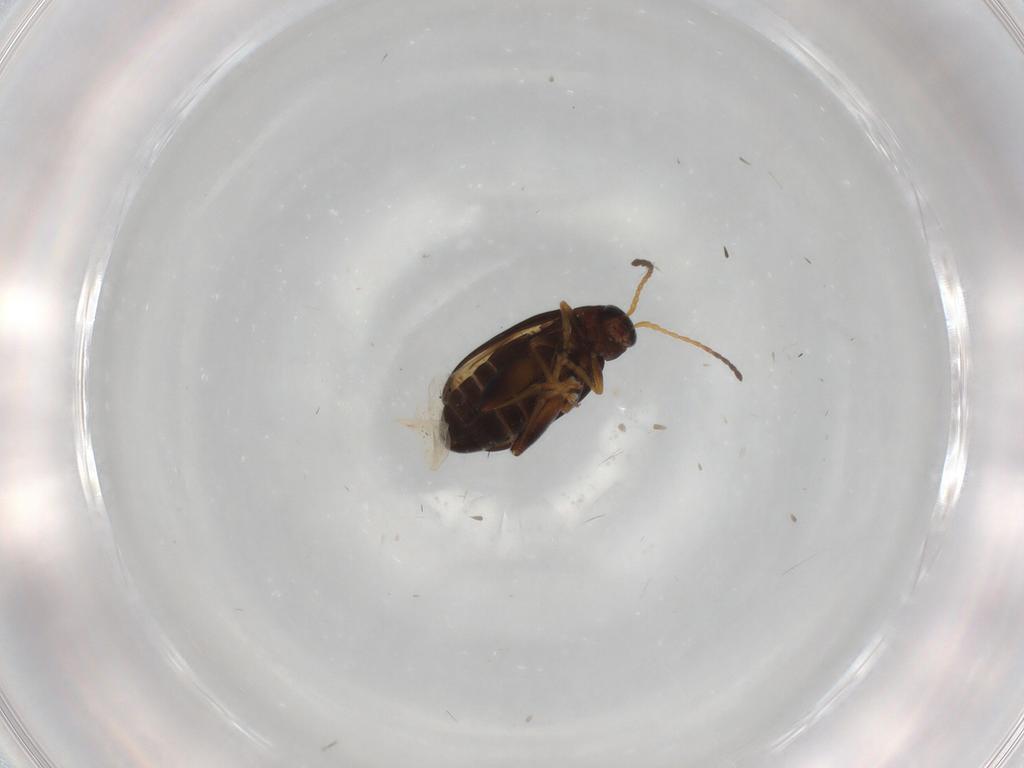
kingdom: Animalia
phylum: Arthropoda
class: Insecta
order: Coleoptera
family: Chrysomelidae
